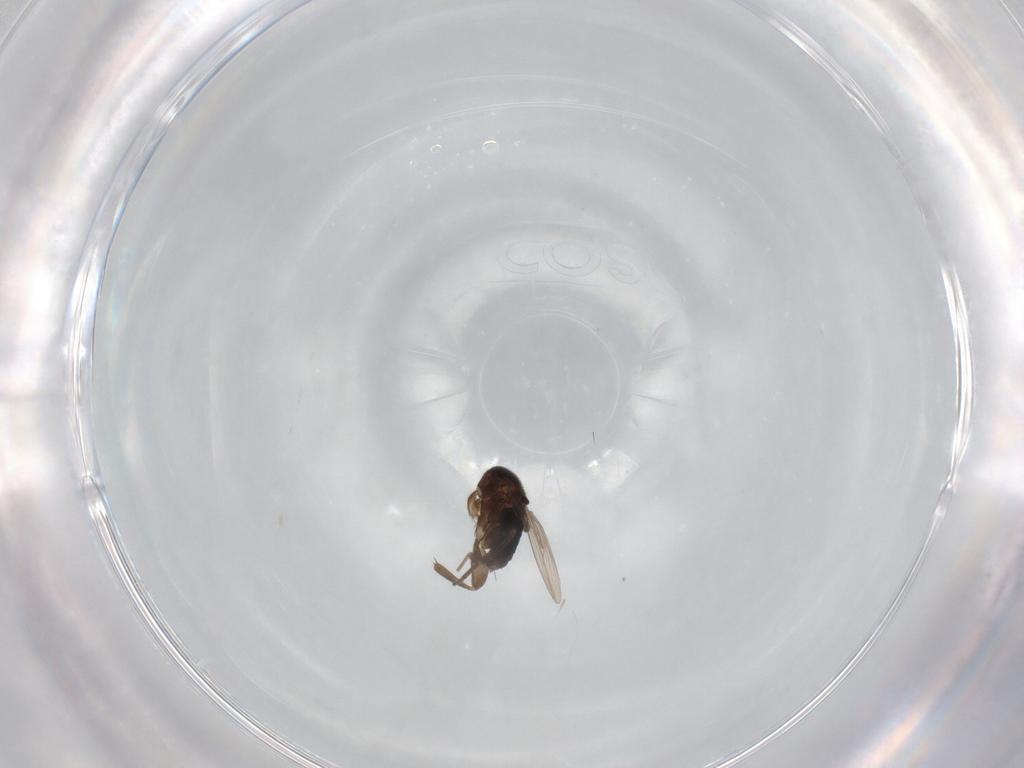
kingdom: Animalia
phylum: Arthropoda
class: Insecta
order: Diptera
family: Phoridae
